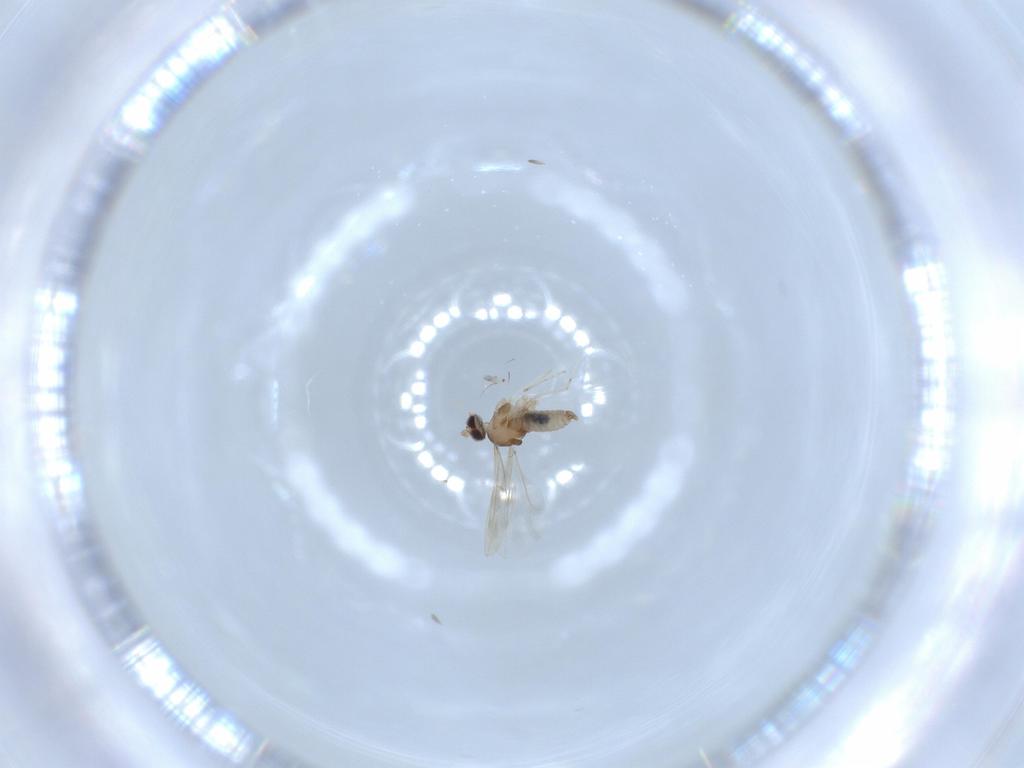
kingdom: Animalia
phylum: Arthropoda
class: Insecta
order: Diptera
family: Cecidomyiidae
